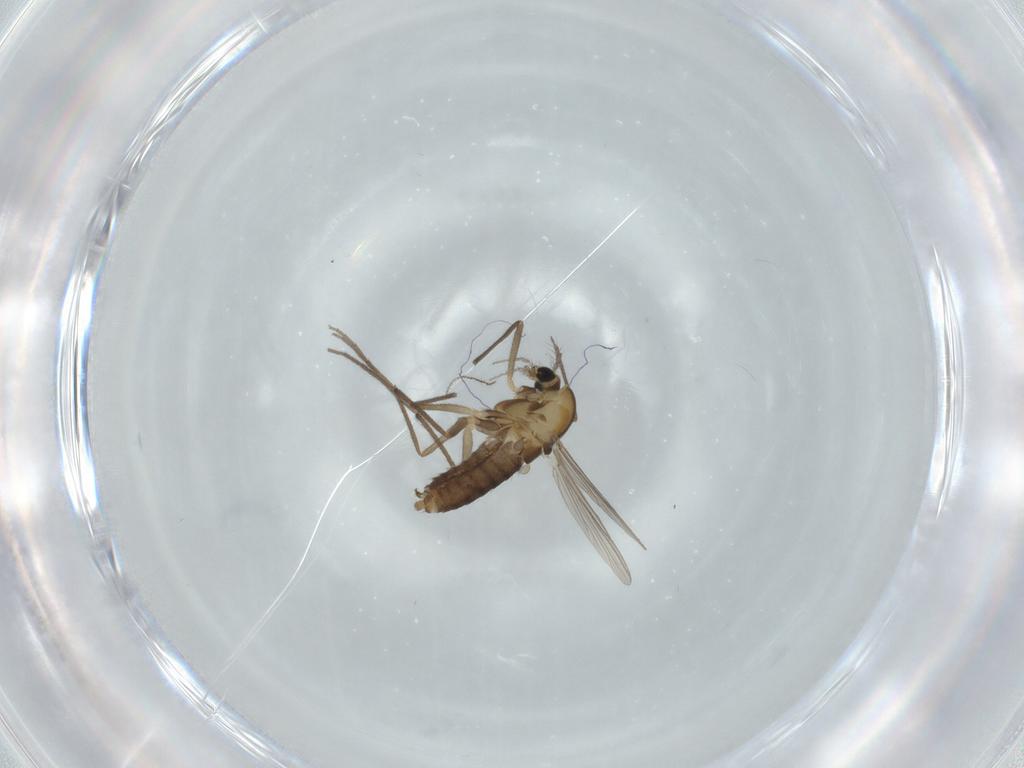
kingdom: Animalia
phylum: Arthropoda
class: Insecta
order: Diptera
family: Chironomidae
